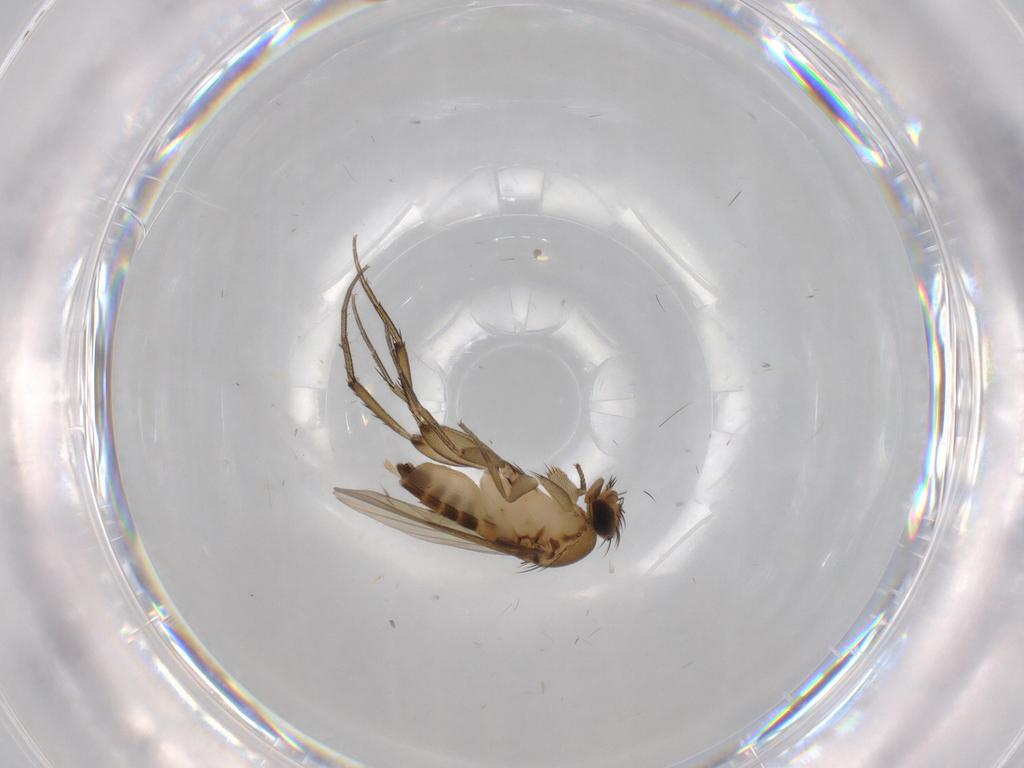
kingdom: Animalia
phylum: Arthropoda
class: Insecta
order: Diptera
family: Phoridae
